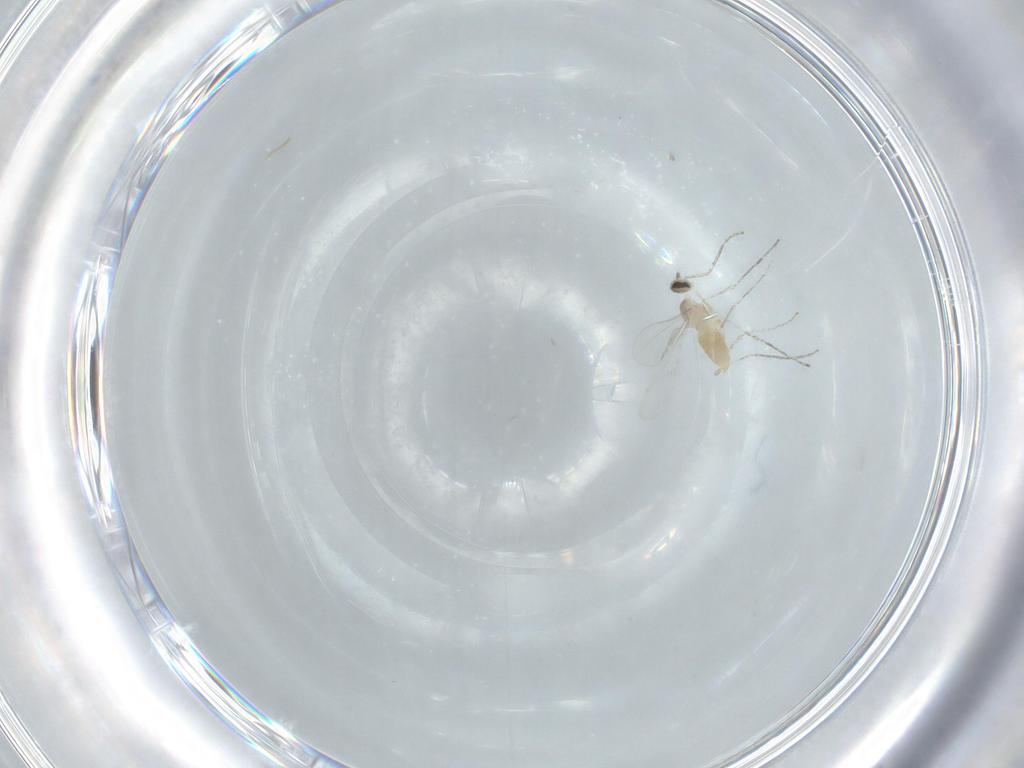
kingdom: Animalia
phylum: Arthropoda
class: Insecta
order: Diptera
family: Cecidomyiidae
